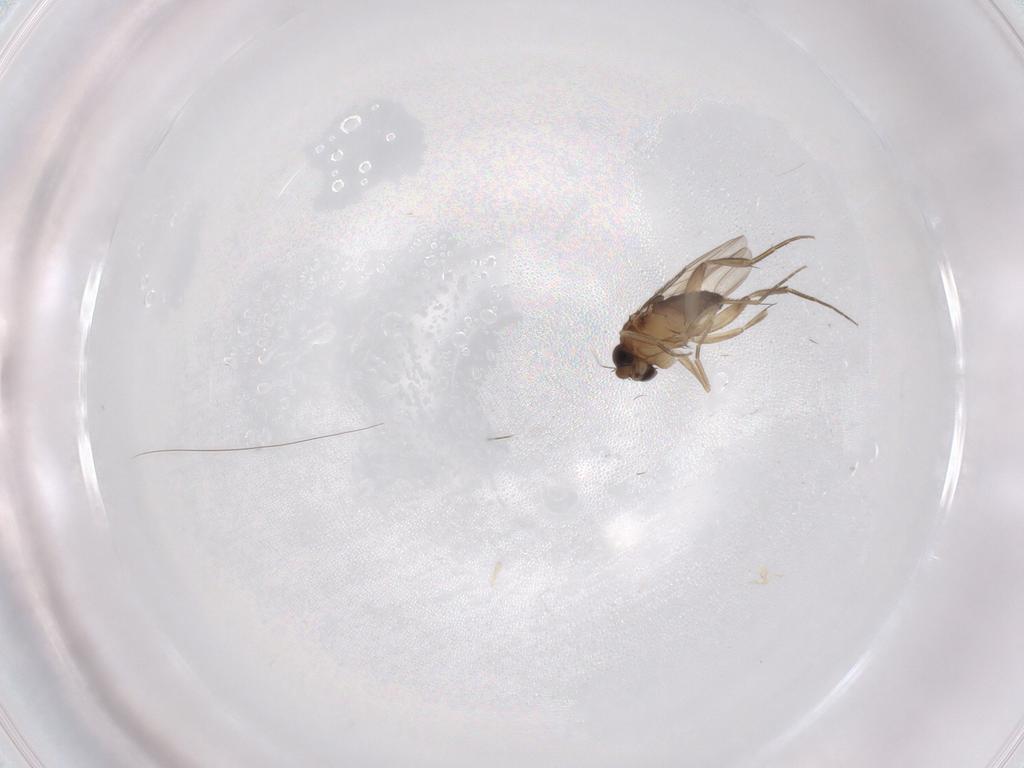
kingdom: Animalia
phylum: Arthropoda
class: Insecta
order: Diptera
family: Phoridae
